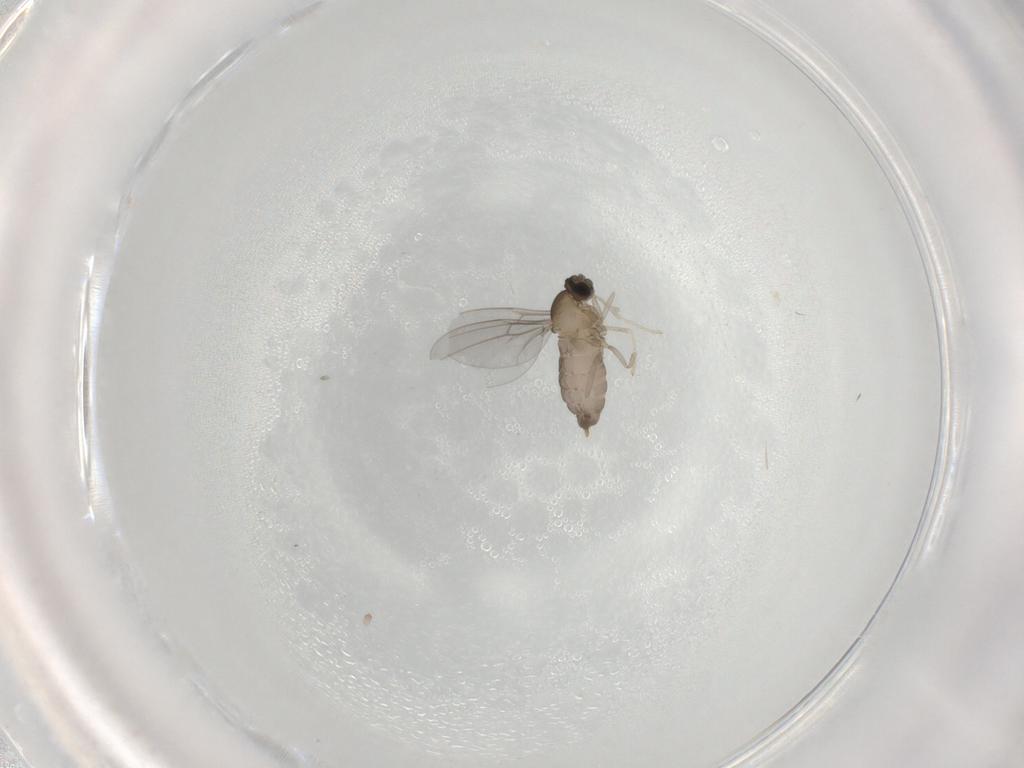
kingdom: Animalia
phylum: Arthropoda
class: Insecta
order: Diptera
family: Cecidomyiidae
